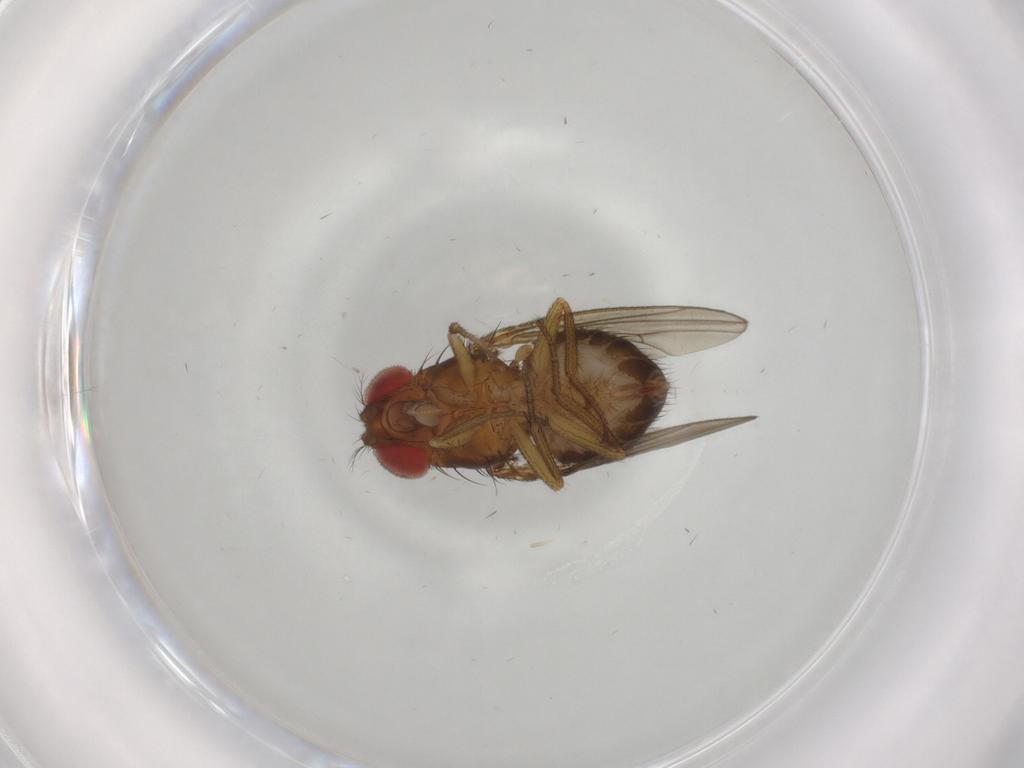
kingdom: Animalia
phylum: Arthropoda
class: Insecta
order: Diptera
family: Drosophilidae
